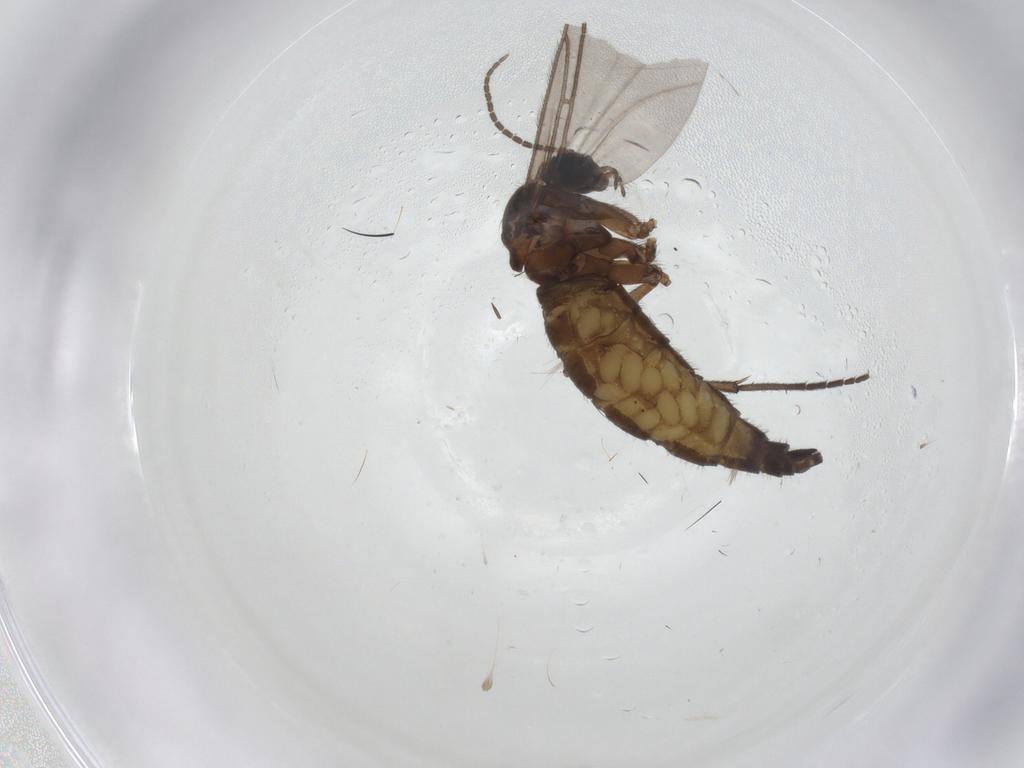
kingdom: Animalia
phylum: Arthropoda
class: Insecta
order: Diptera
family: Sciaridae
